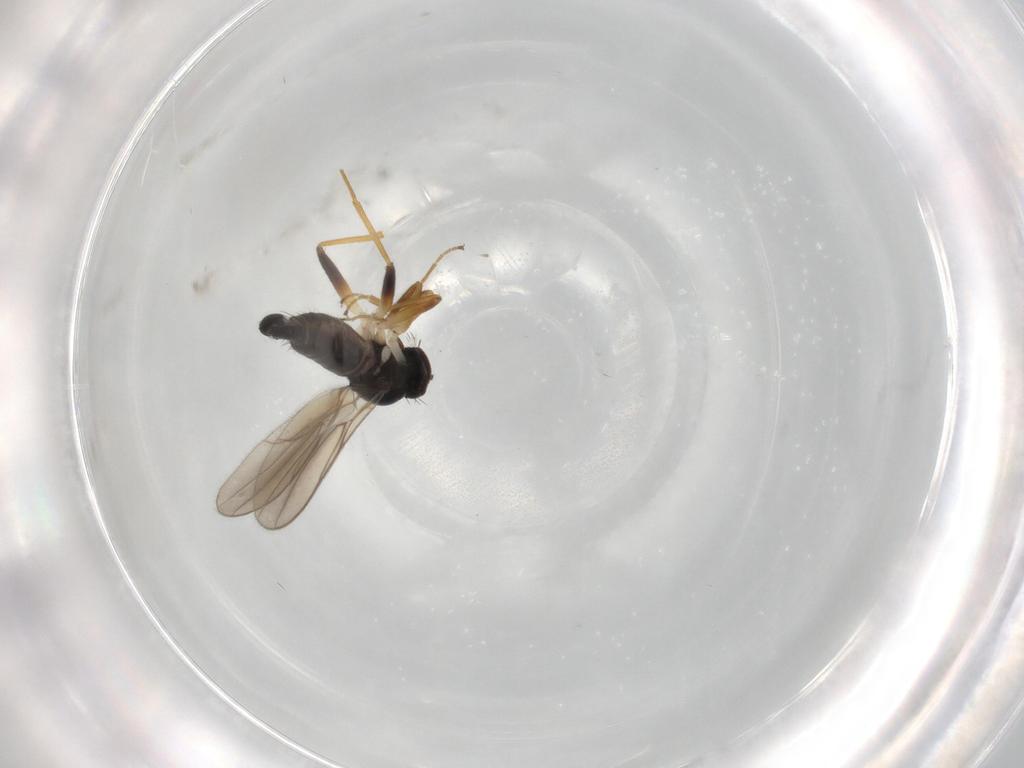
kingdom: Animalia
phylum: Arthropoda
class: Insecta
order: Diptera
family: Hybotidae
